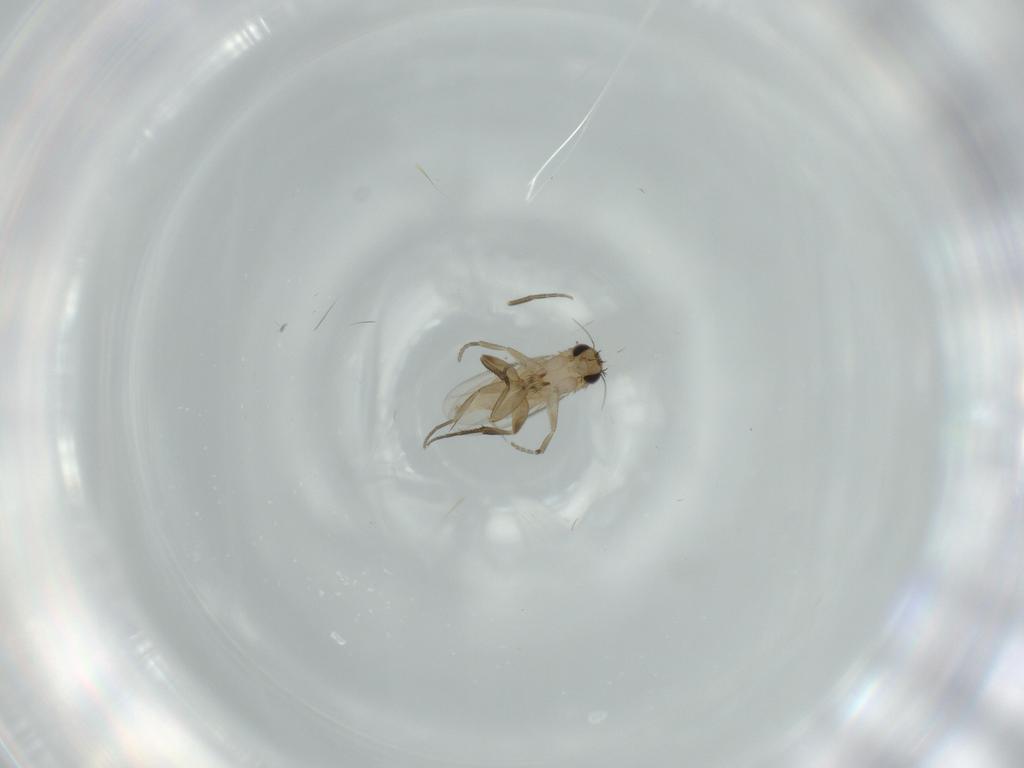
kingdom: Animalia
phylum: Arthropoda
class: Insecta
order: Diptera
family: Phoridae
